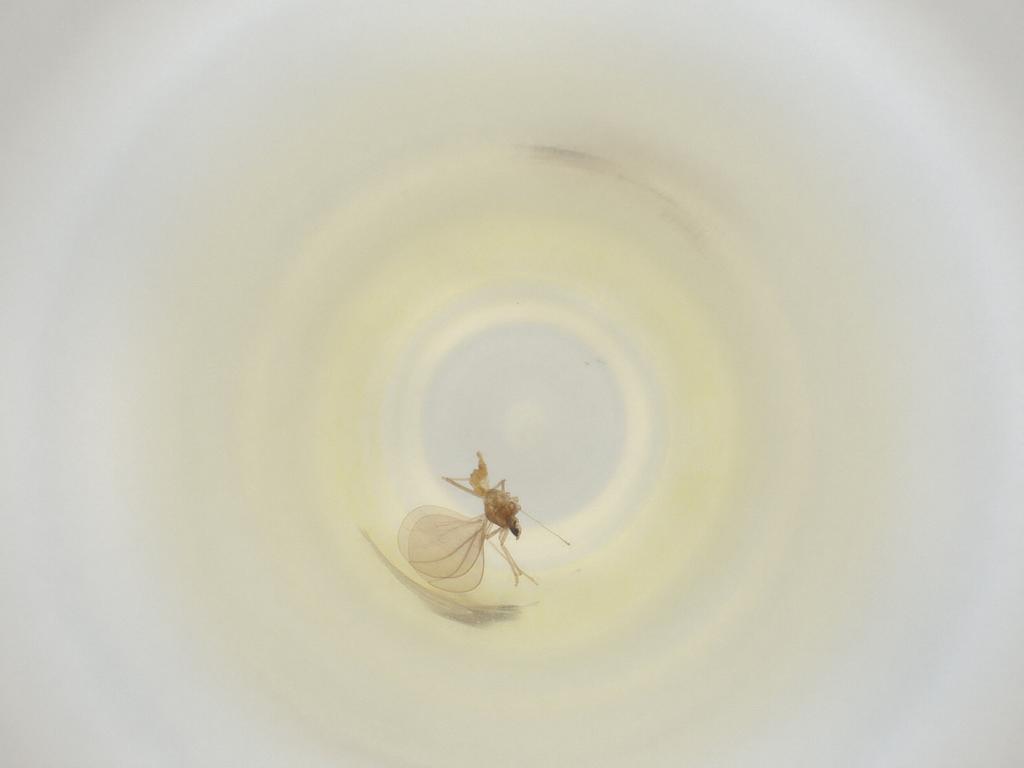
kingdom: Animalia
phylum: Arthropoda
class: Insecta
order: Diptera
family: Cecidomyiidae
